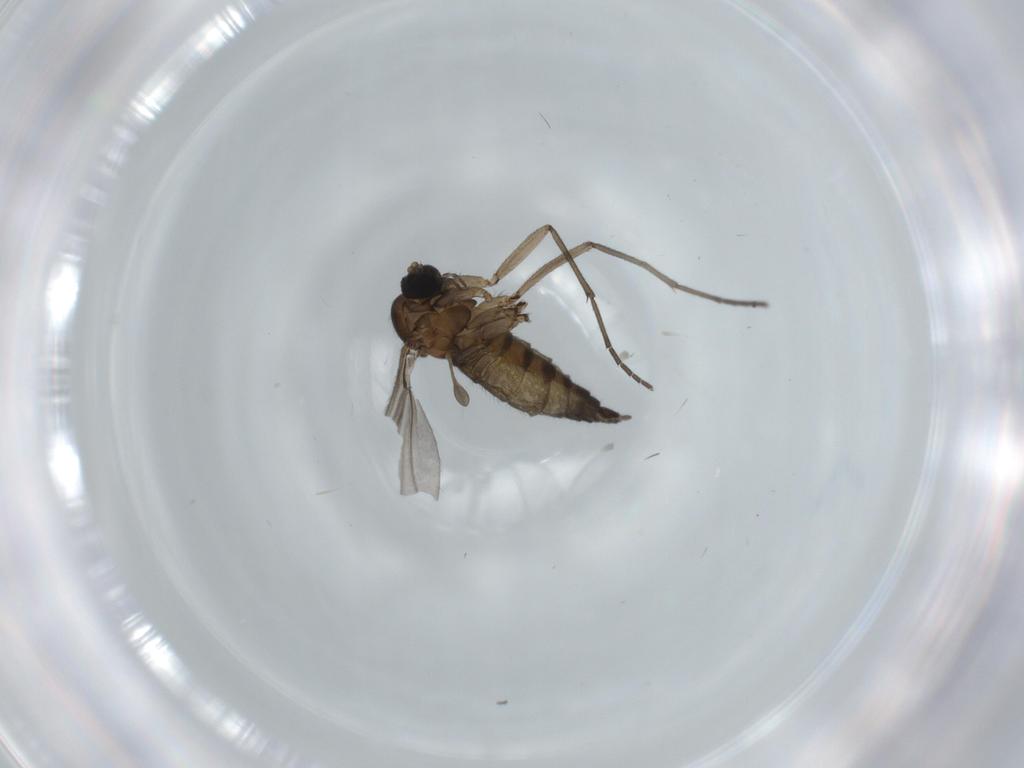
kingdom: Animalia
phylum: Arthropoda
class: Insecta
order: Diptera
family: Sciaridae
